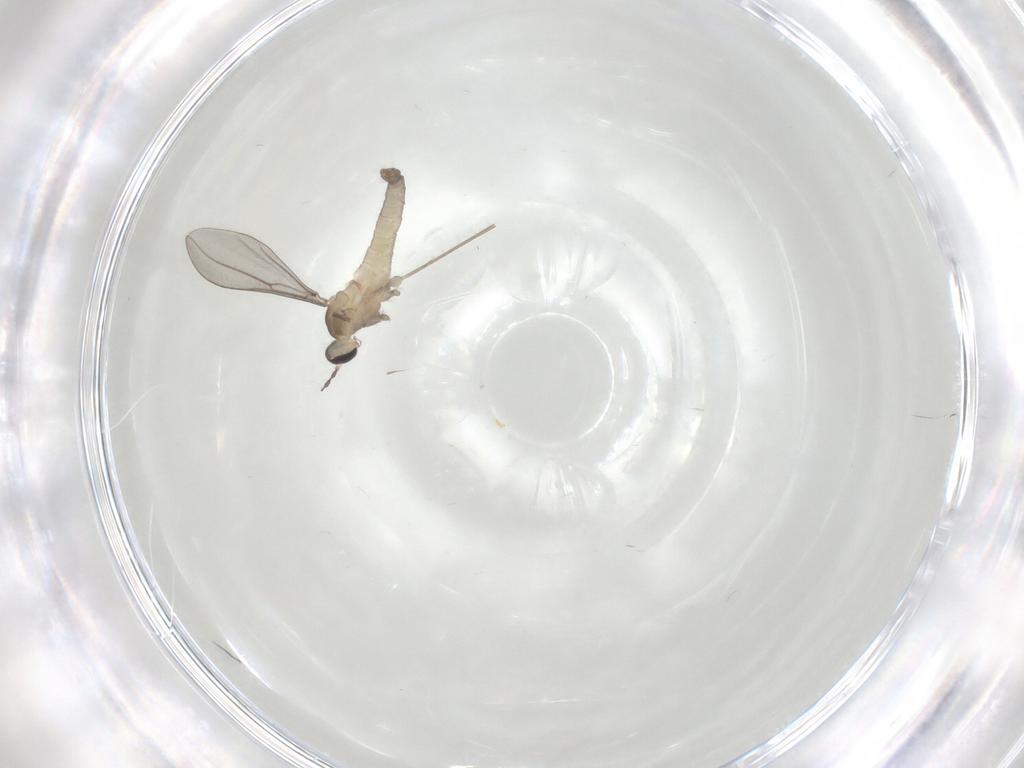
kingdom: Animalia
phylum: Arthropoda
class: Insecta
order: Diptera
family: Cecidomyiidae
